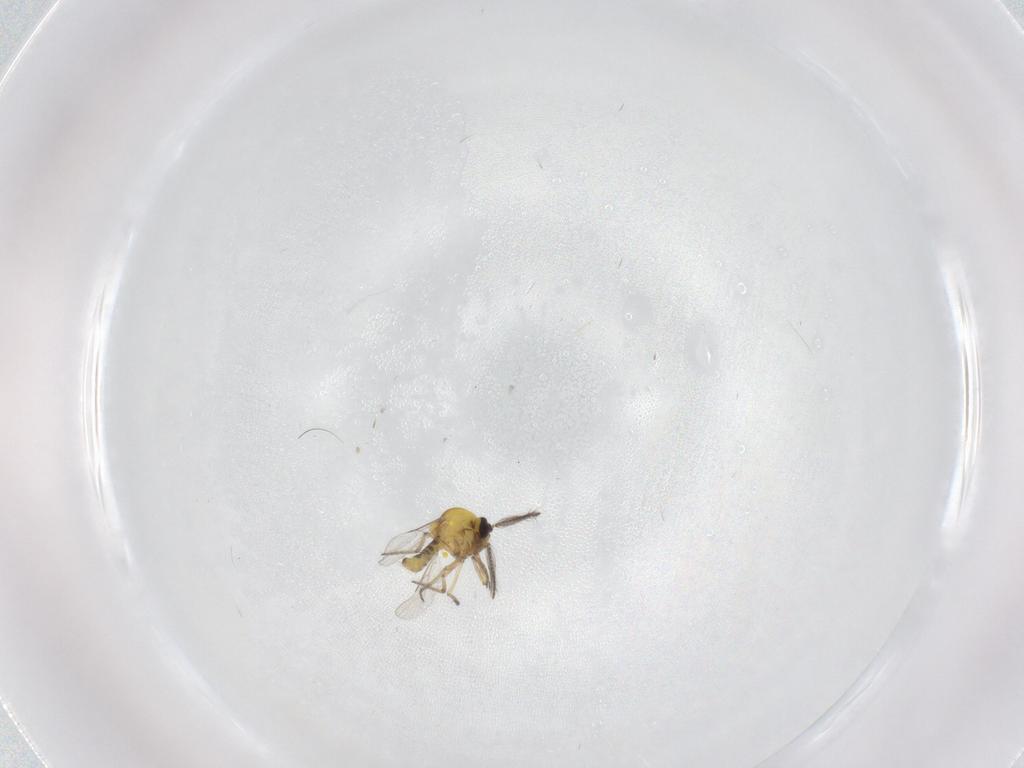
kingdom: Animalia
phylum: Arthropoda
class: Insecta
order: Diptera
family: Ceratopogonidae
